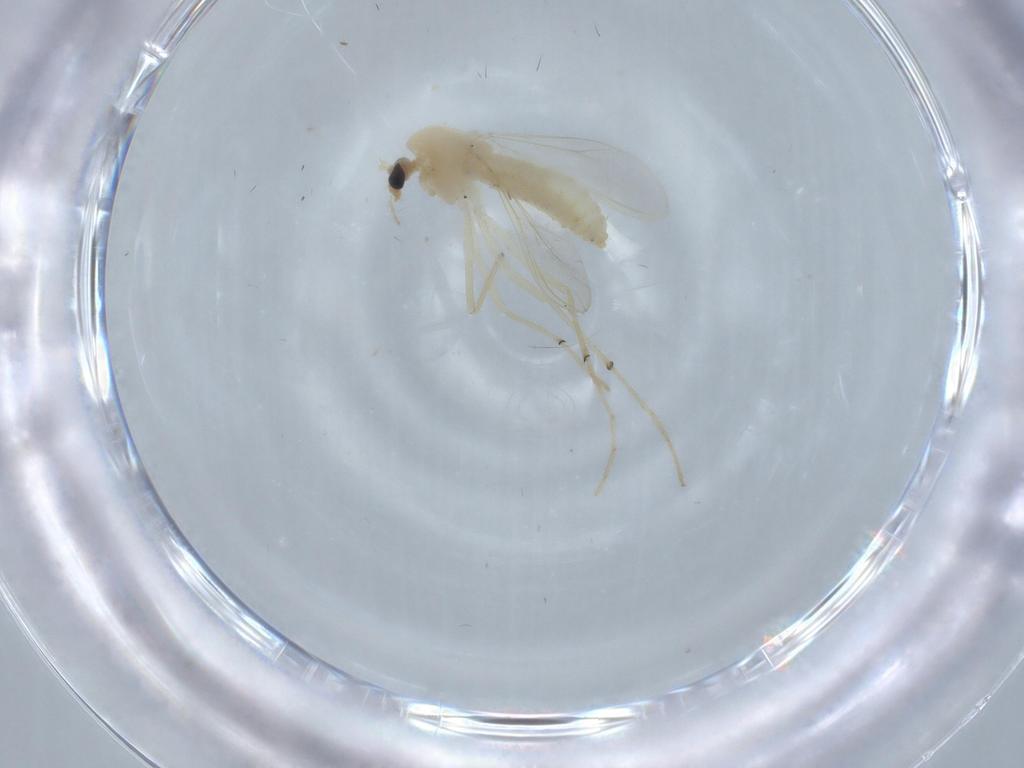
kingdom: Animalia
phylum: Arthropoda
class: Insecta
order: Diptera
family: Chironomidae
